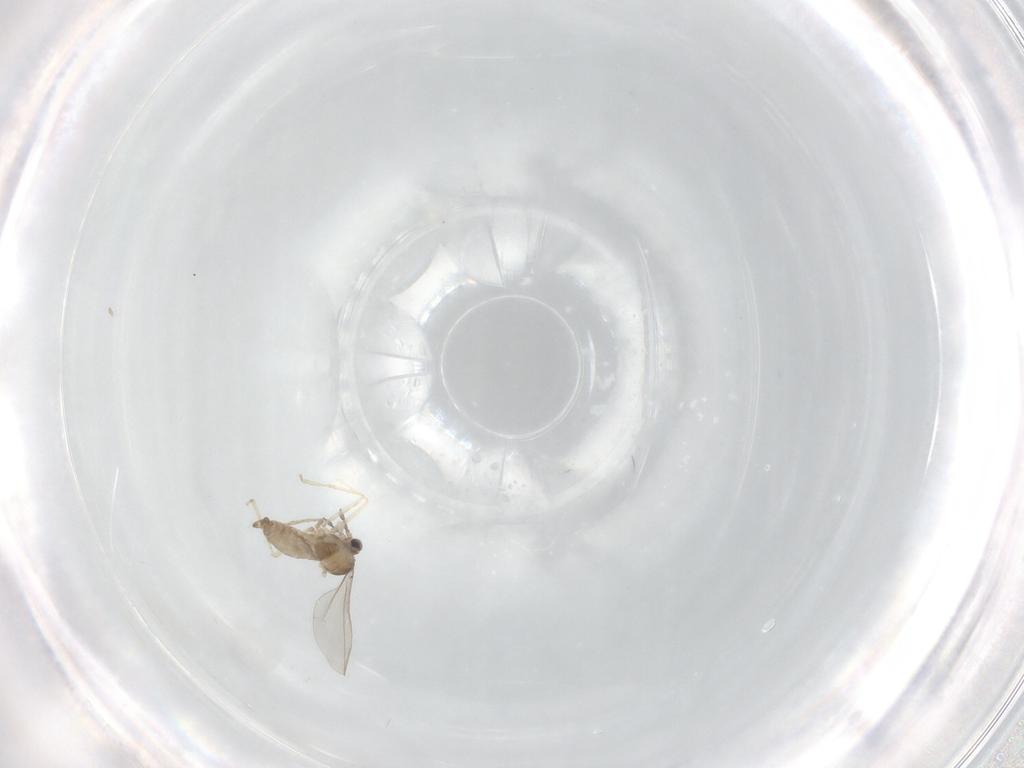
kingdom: Animalia
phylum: Arthropoda
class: Insecta
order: Diptera
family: Chironomidae
